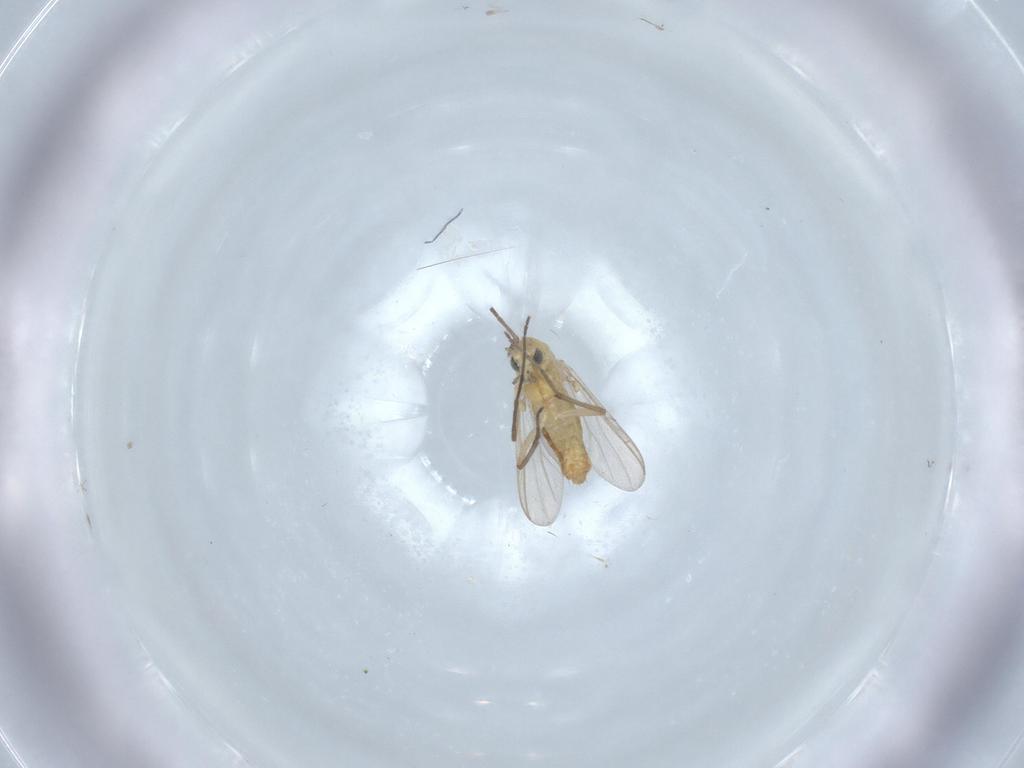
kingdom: Animalia
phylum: Arthropoda
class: Insecta
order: Diptera
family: Chironomidae
